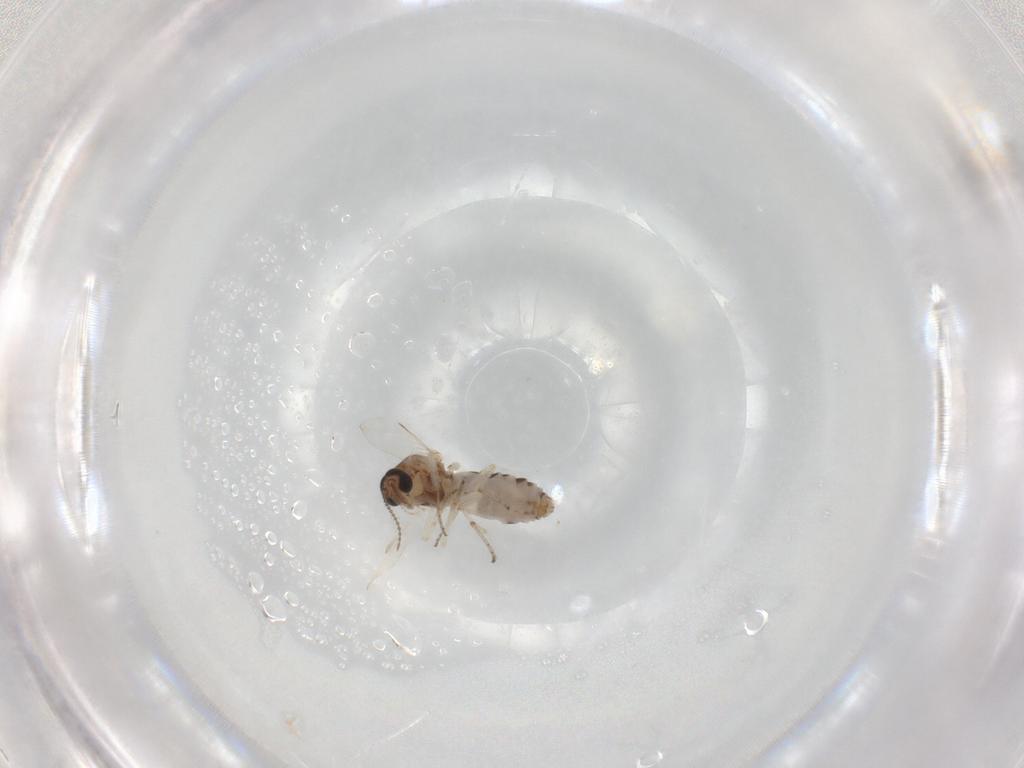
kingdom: Animalia
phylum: Arthropoda
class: Insecta
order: Diptera
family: Ceratopogonidae
